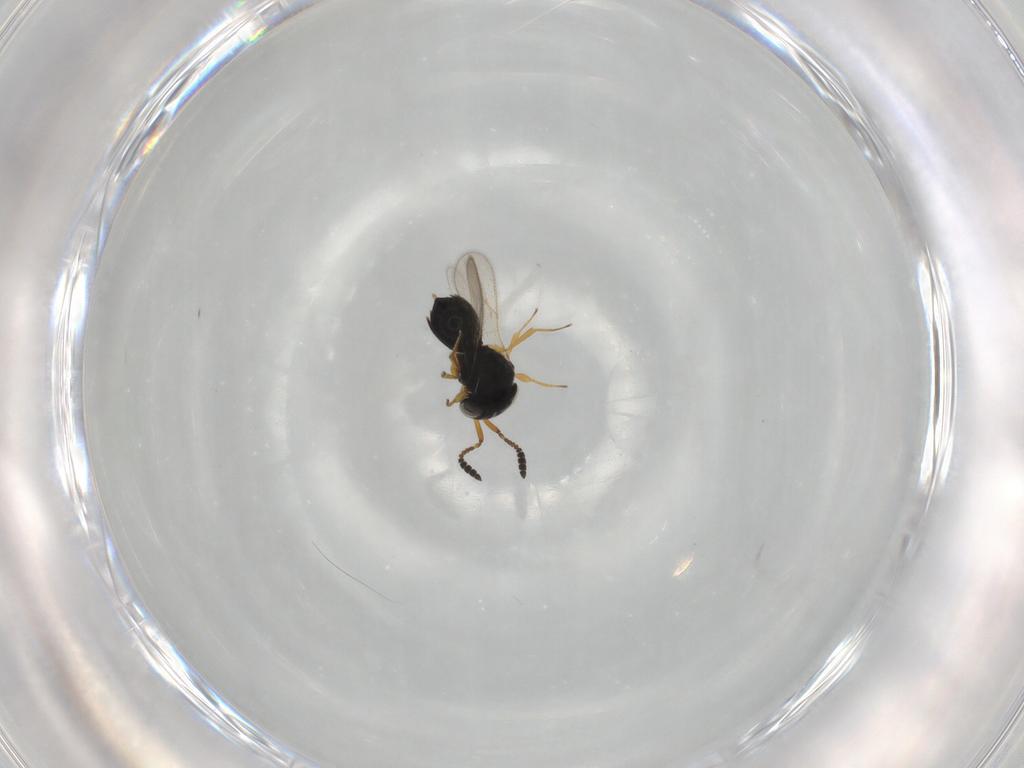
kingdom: Animalia
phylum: Arthropoda
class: Insecta
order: Hymenoptera
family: Scelionidae
